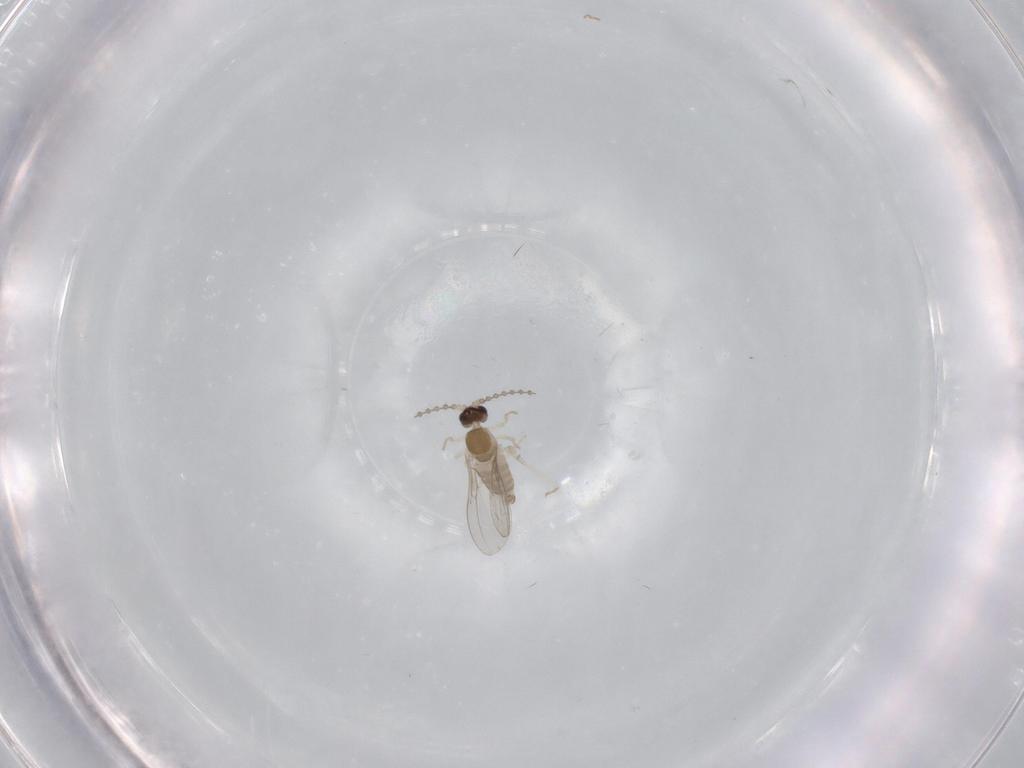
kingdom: Animalia
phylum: Arthropoda
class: Insecta
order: Diptera
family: Cecidomyiidae
